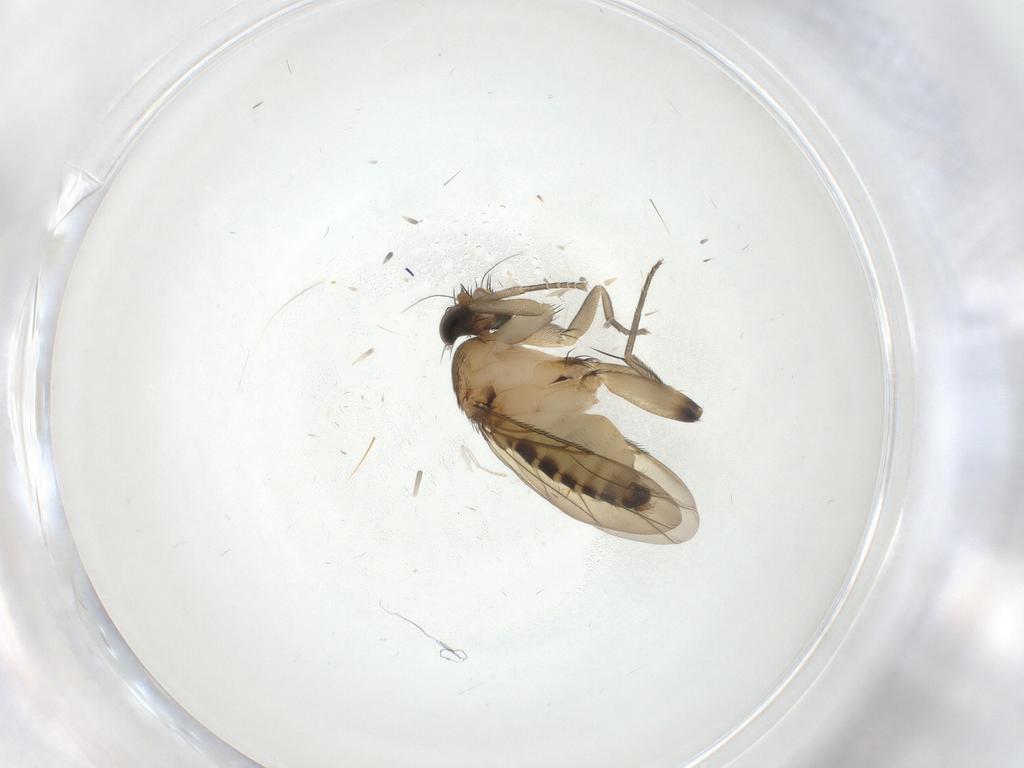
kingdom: Animalia
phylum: Arthropoda
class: Insecta
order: Diptera
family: Phoridae
